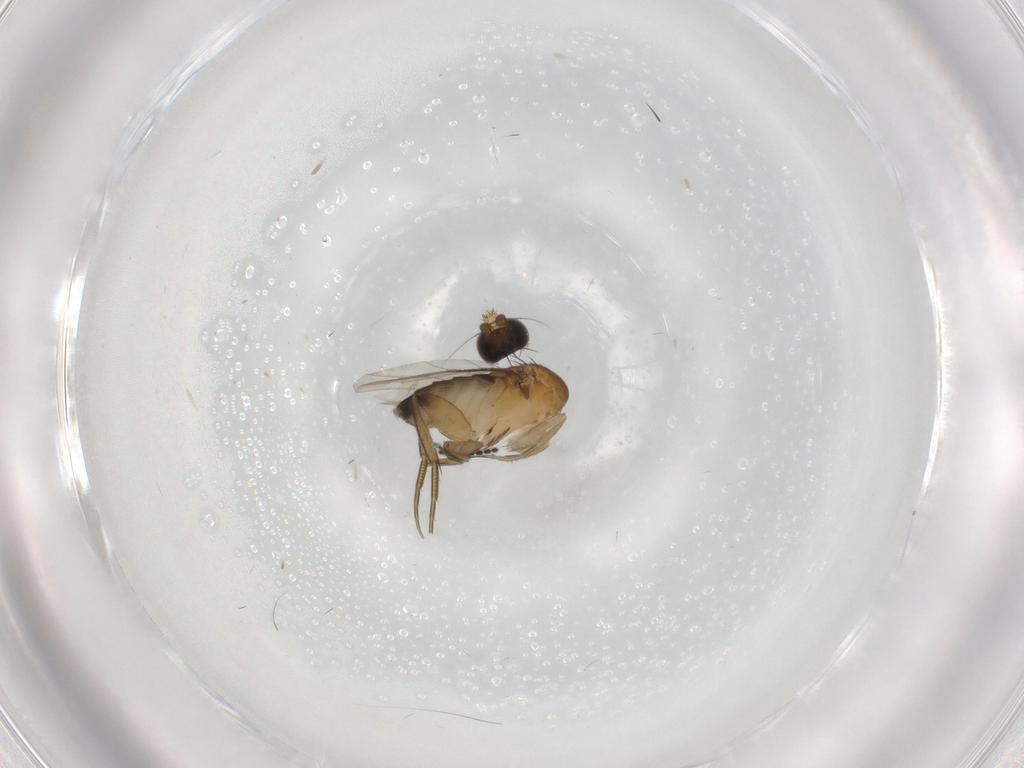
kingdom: Animalia
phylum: Arthropoda
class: Insecta
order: Diptera
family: Phoridae
